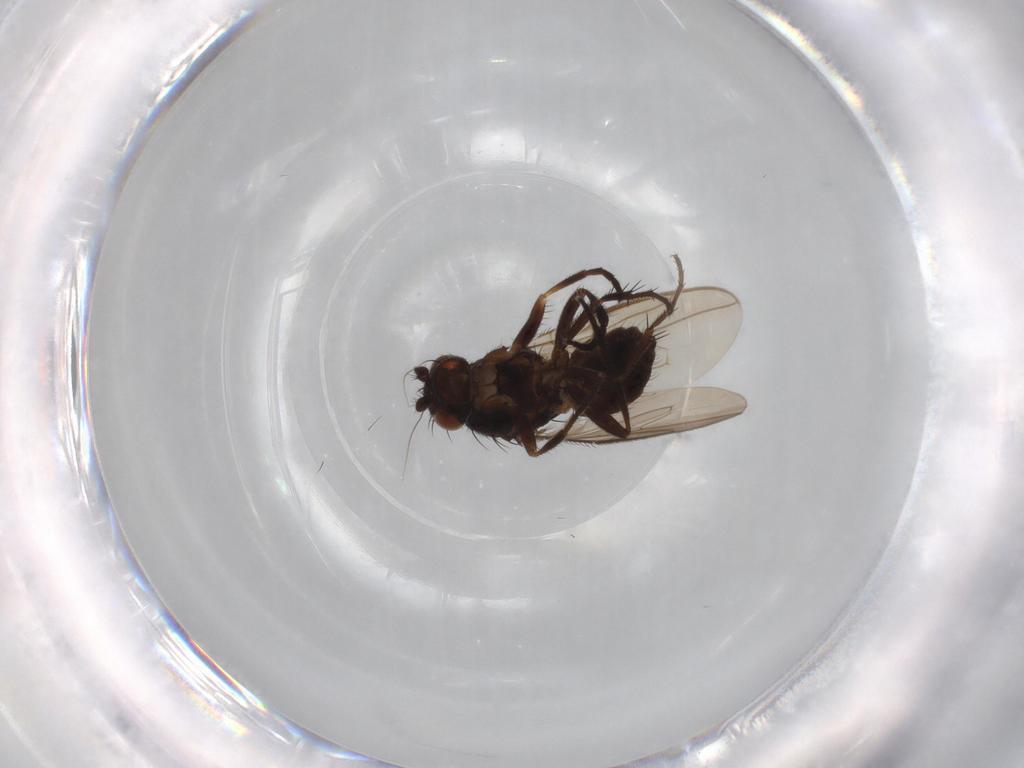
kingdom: Animalia
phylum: Arthropoda
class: Insecta
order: Diptera
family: Sphaeroceridae
